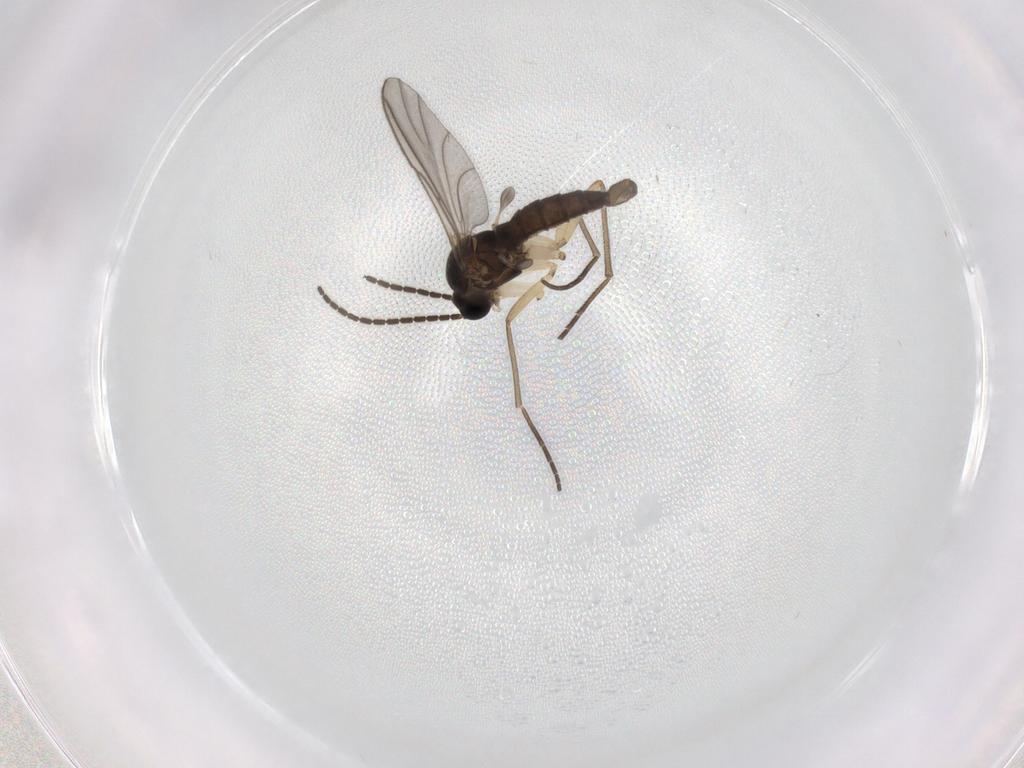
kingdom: Animalia
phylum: Arthropoda
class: Insecta
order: Diptera
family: Sciaridae
